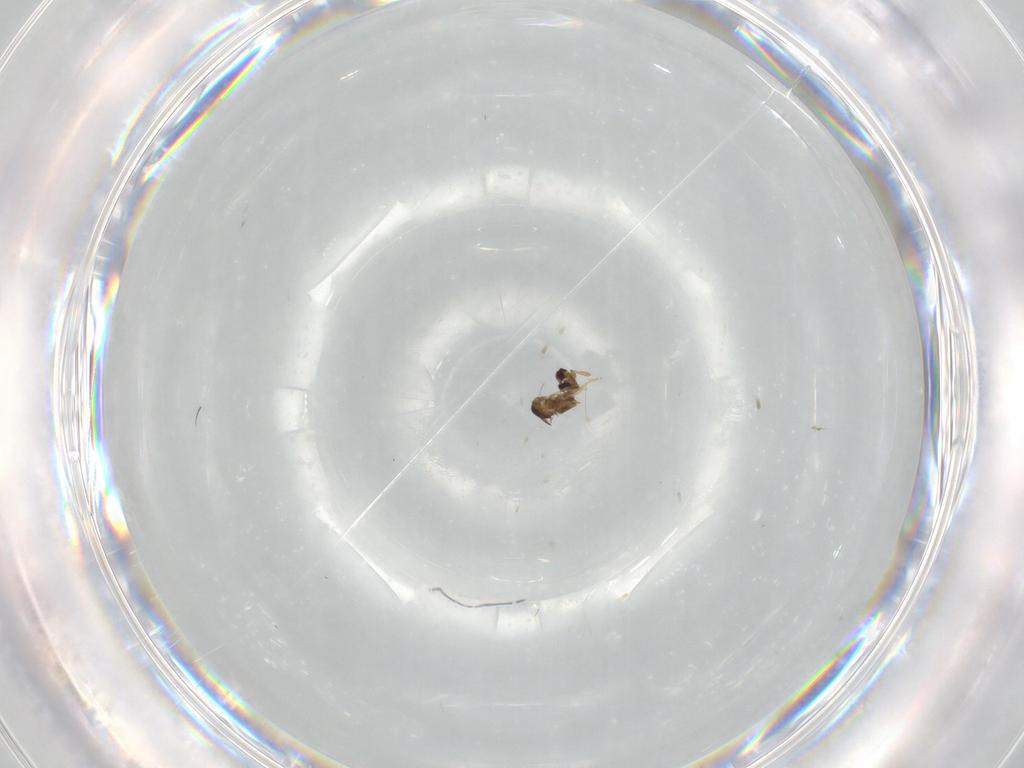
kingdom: Animalia
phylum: Arthropoda
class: Insecta
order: Hymenoptera
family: Encyrtidae
